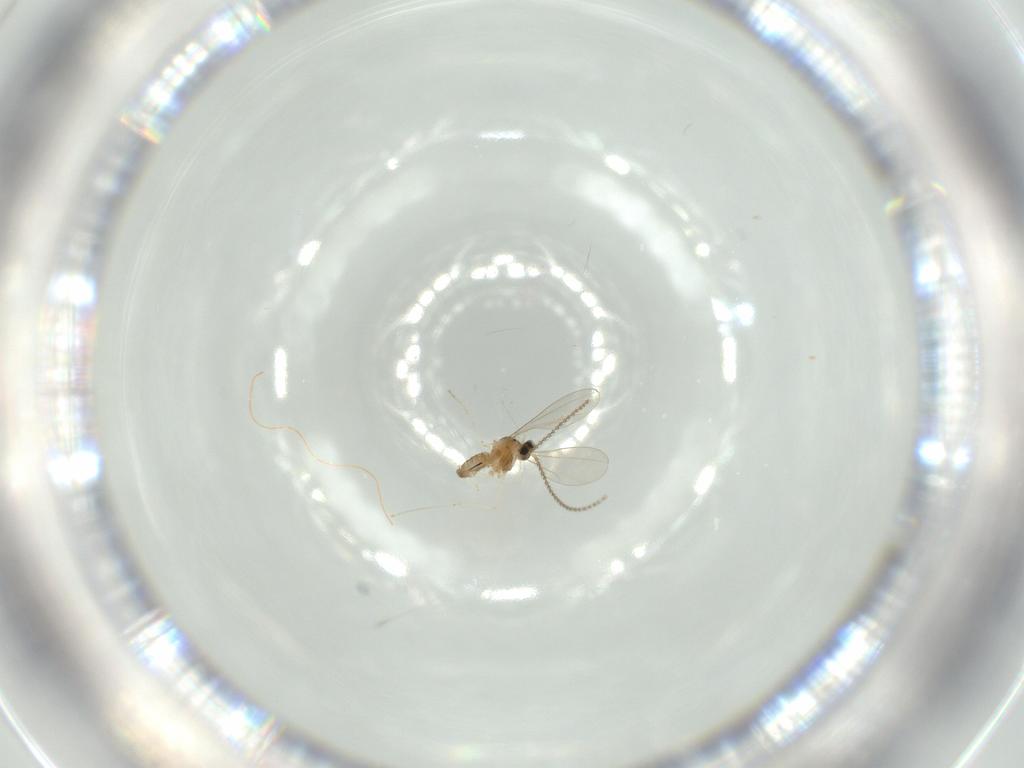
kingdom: Animalia
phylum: Arthropoda
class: Insecta
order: Diptera
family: Cecidomyiidae
